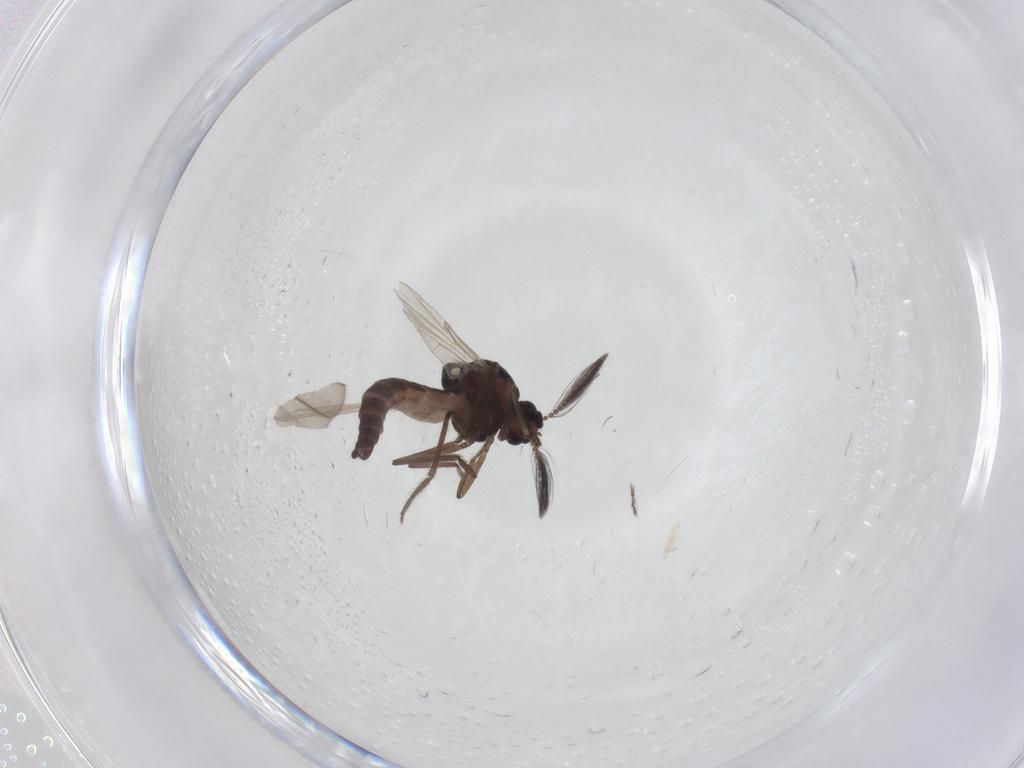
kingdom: Animalia
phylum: Arthropoda
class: Insecta
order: Diptera
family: Ceratopogonidae
